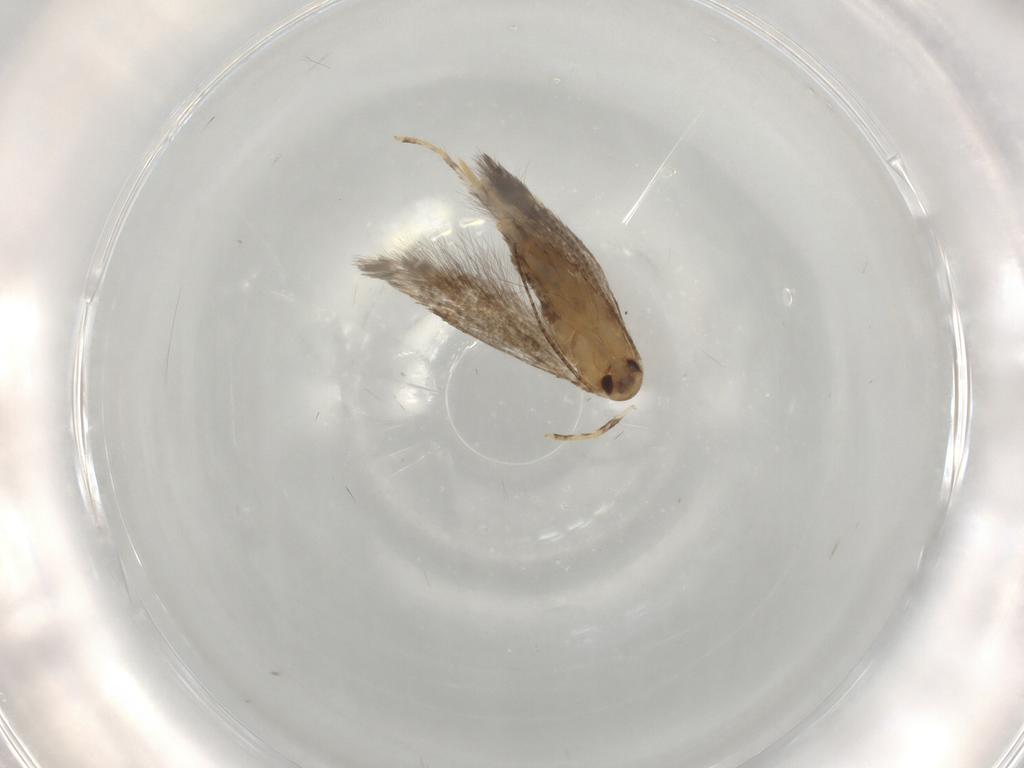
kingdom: Animalia
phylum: Arthropoda
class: Insecta
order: Lepidoptera
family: Elachistidae
